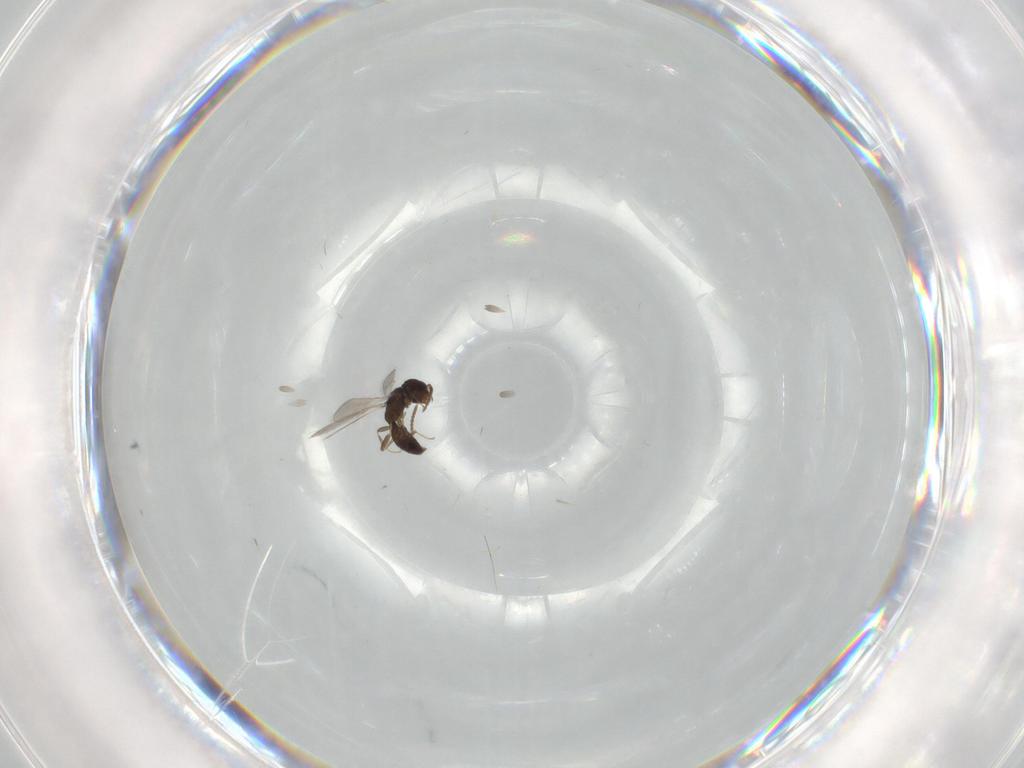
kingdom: Animalia
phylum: Arthropoda
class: Insecta
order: Hymenoptera
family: Bethylidae
